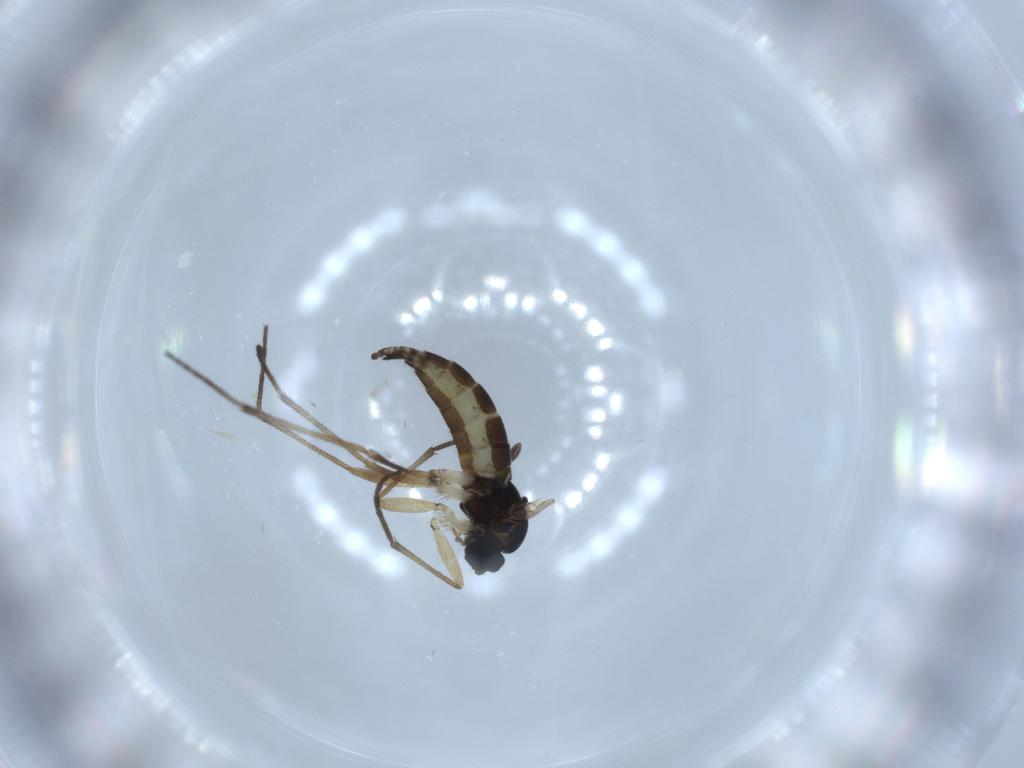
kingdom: Animalia
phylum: Arthropoda
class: Insecta
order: Diptera
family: Sciaridae
